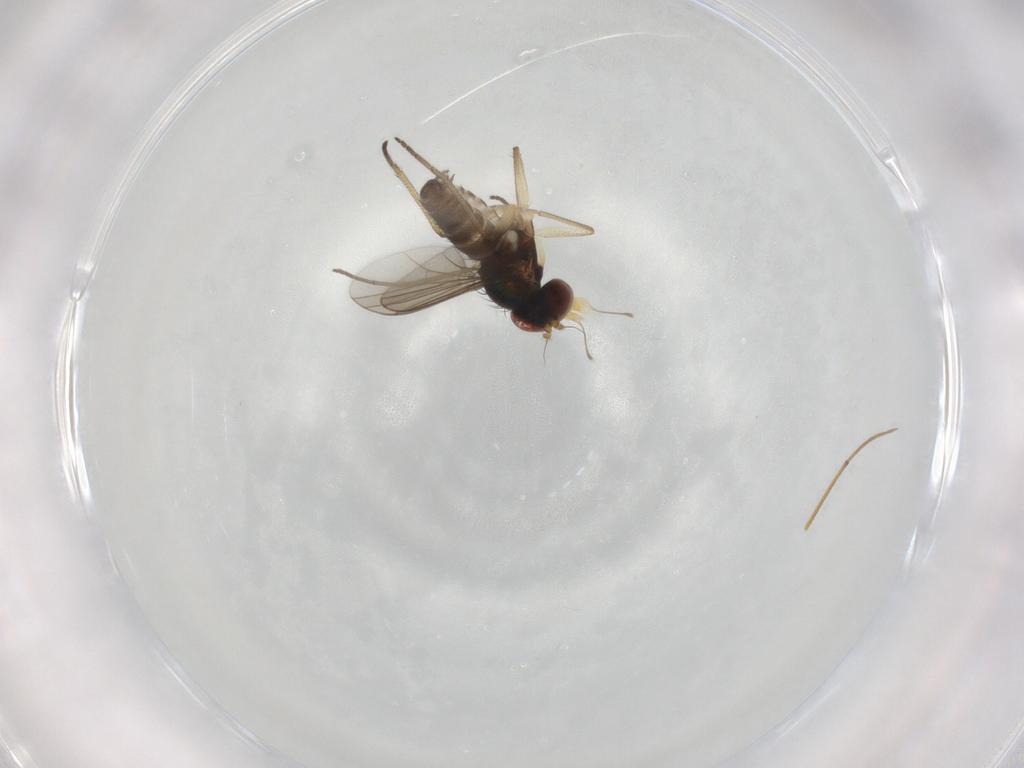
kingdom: Animalia
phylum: Arthropoda
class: Insecta
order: Diptera
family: Dolichopodidae
